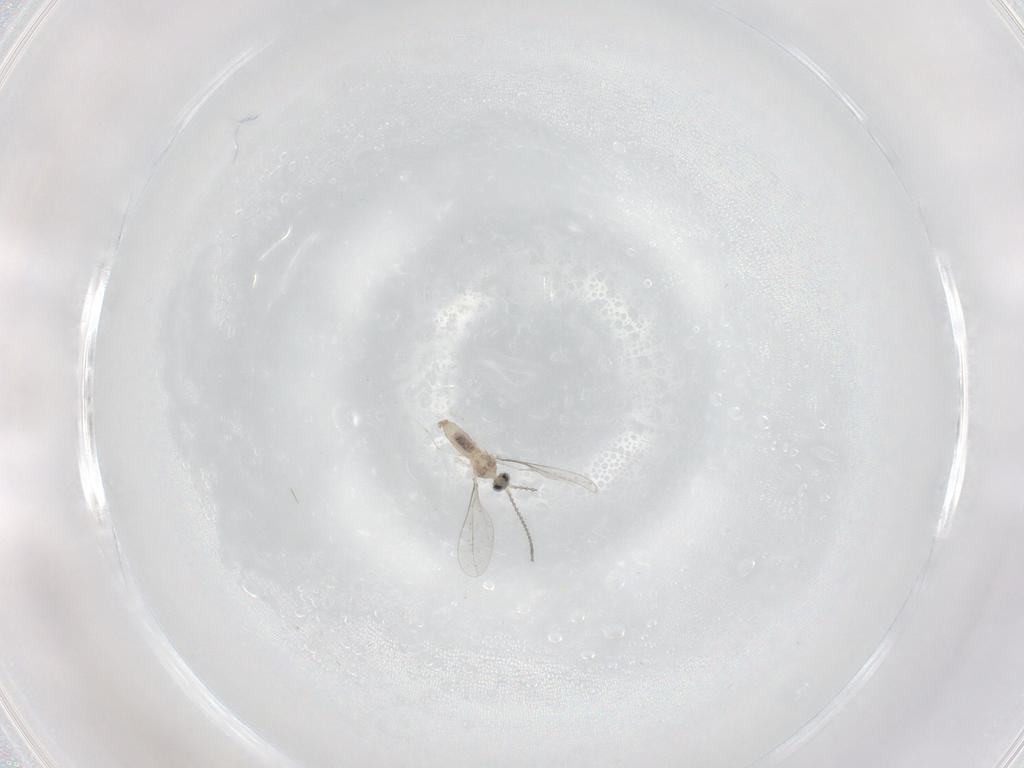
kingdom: Animalia
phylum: Arthropoda
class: Insecta
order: Diptera
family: Cecidomyiidae
